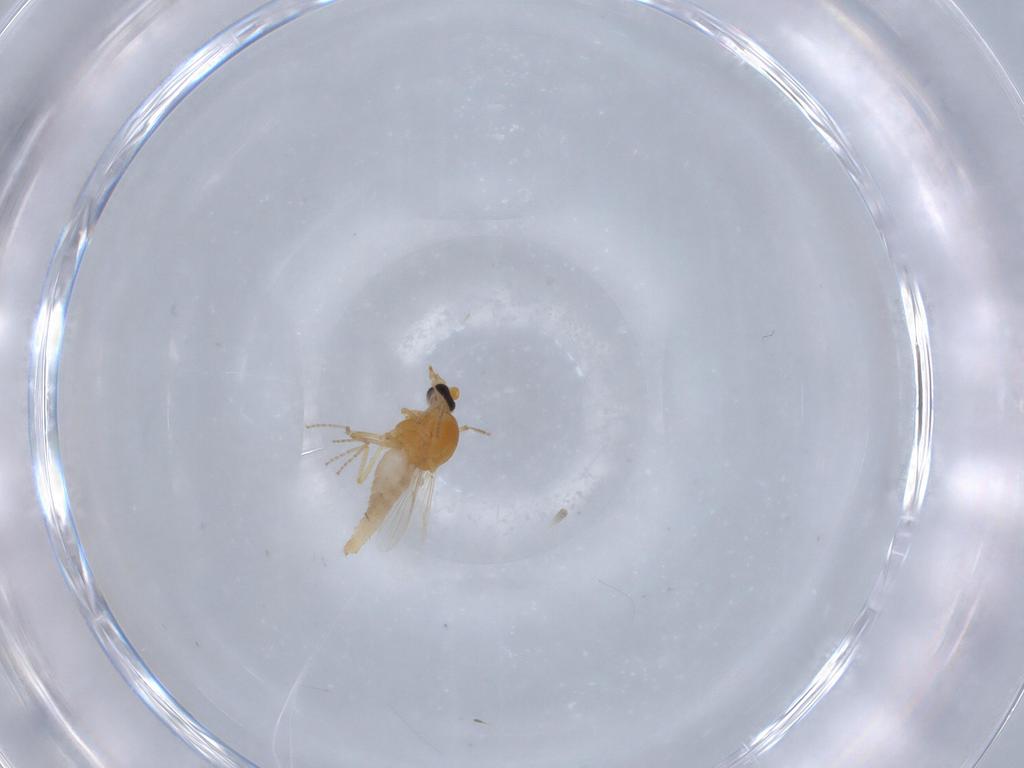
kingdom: Animalia
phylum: Arthropoda
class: Insecta
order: Diptera
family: Ceratopogonidae
